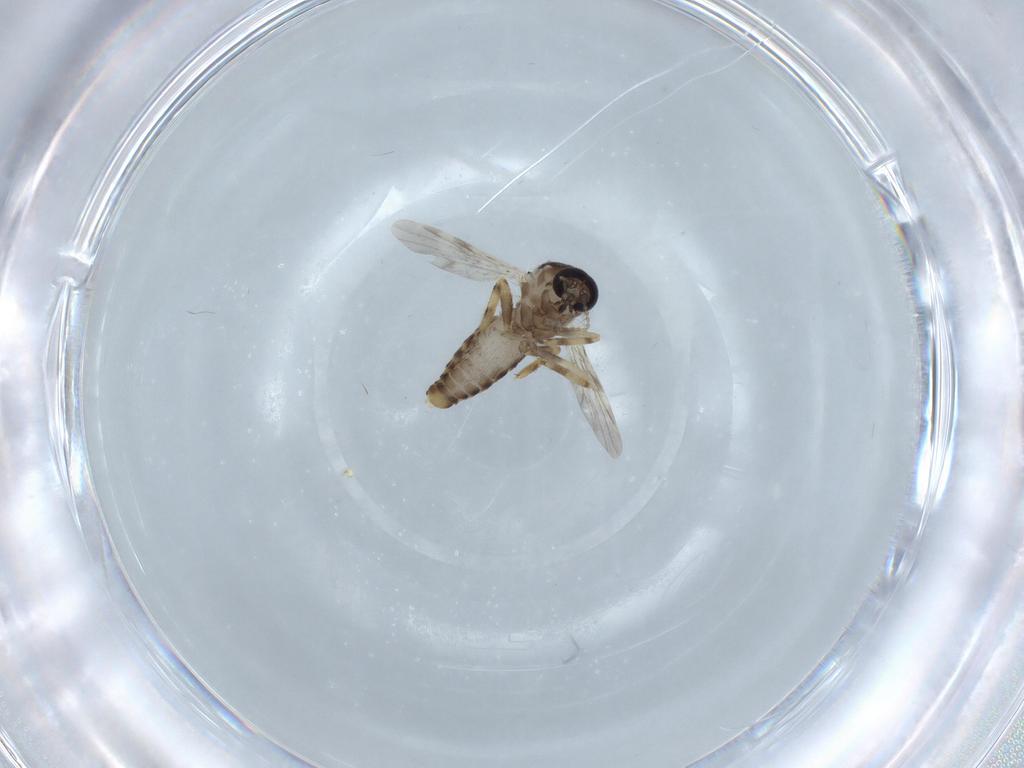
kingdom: Animalia
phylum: Arthropoda
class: Insecta
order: Diptera
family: Ceratopogonidae
